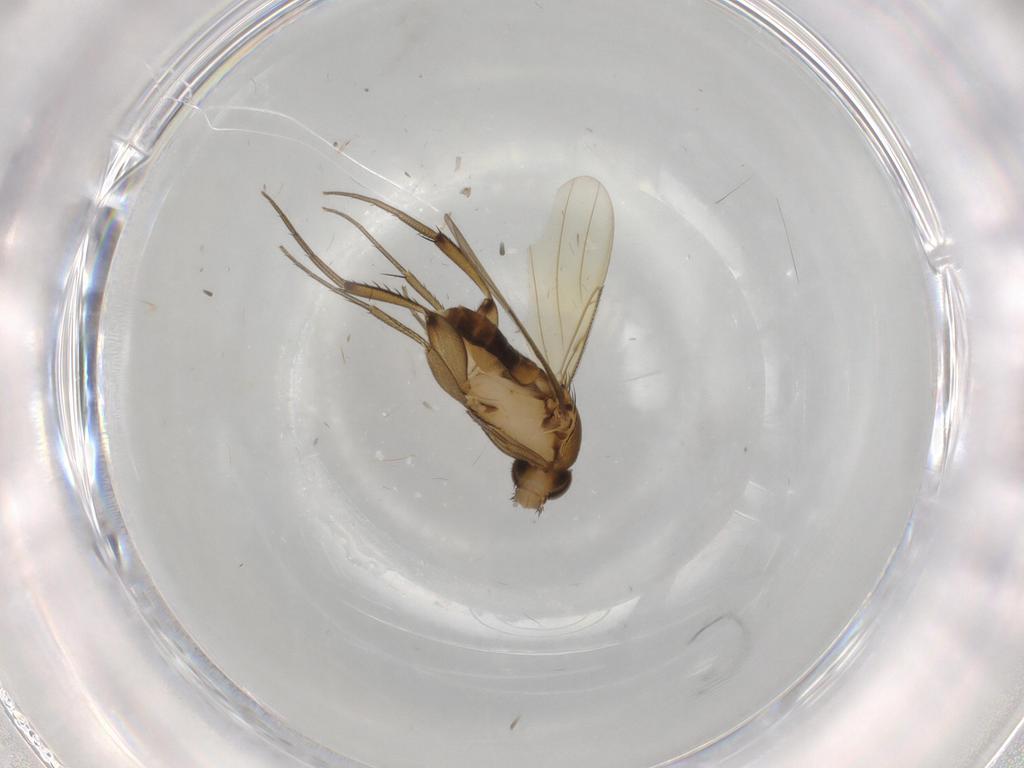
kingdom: Animalia
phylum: Arthropoda
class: Insecta
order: Diptera
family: Phoridae
